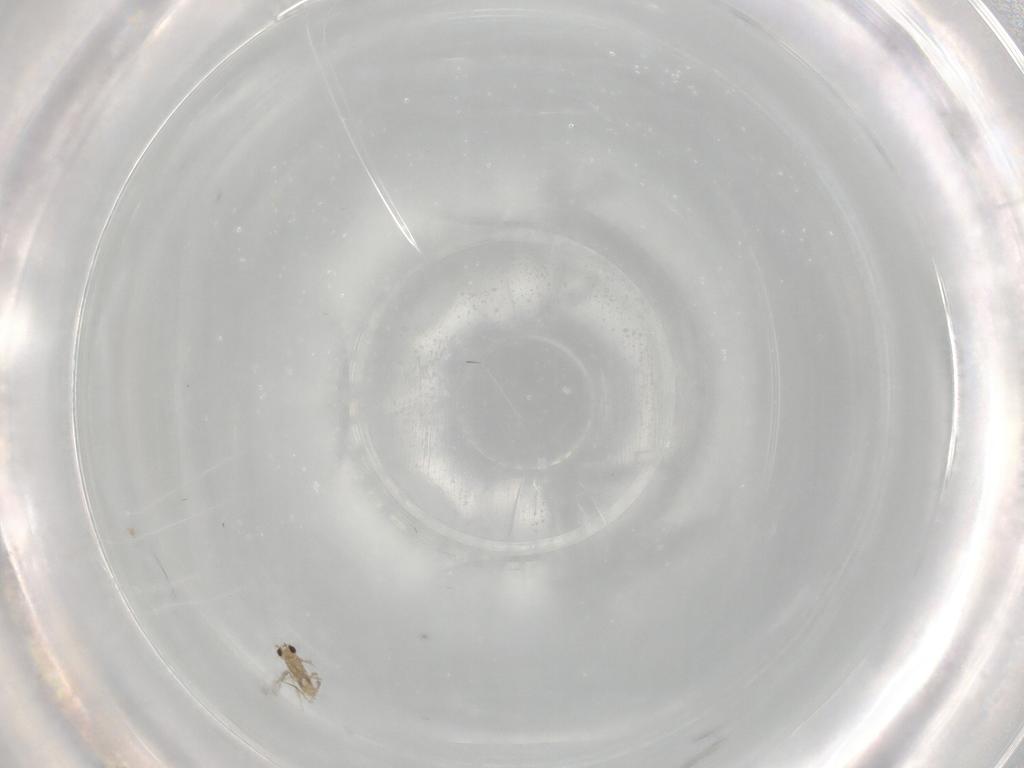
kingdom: Animalia
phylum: Arthropoda
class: Insecta
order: Hymenoptera
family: Mymaridae
